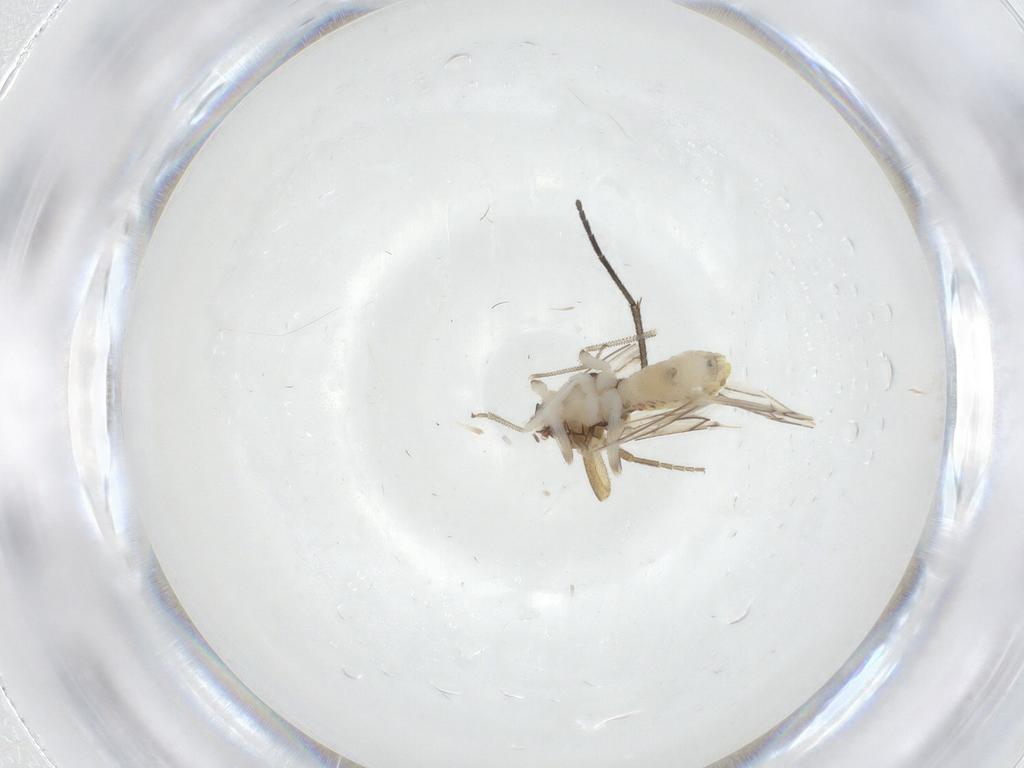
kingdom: Animalia
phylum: Arthropoda
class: Insecta
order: Psocodea
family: Caeciliusidae
